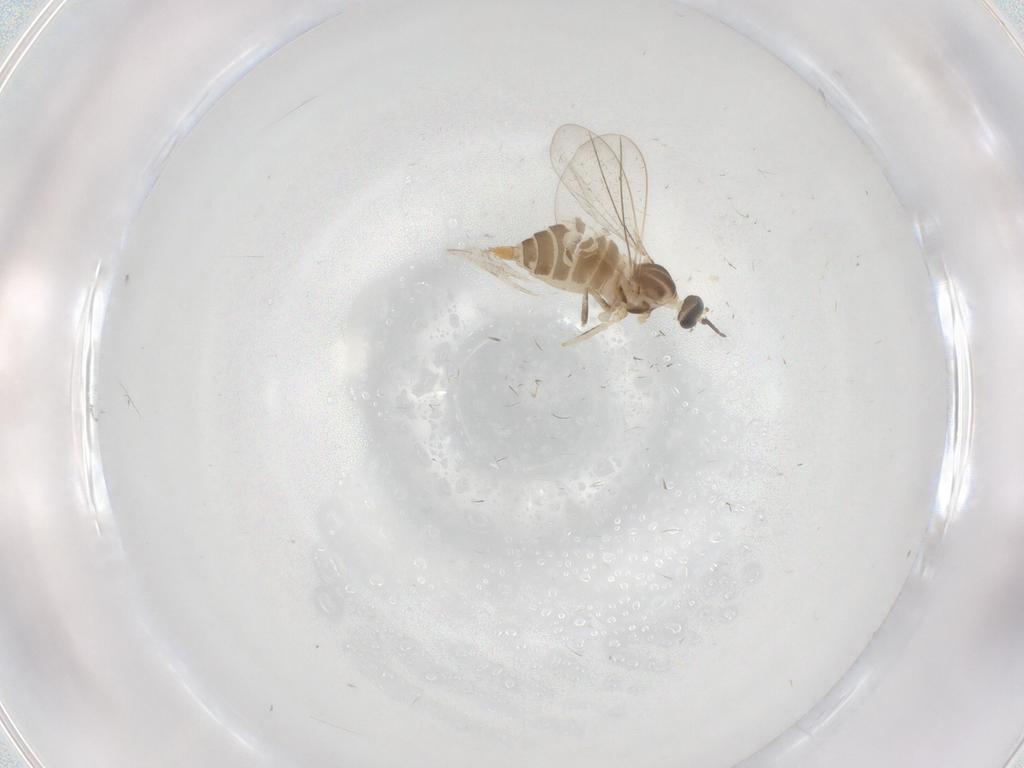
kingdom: Animalia
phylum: Arthropoda
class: Insecta
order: Diptera
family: Cecidomyiidae
